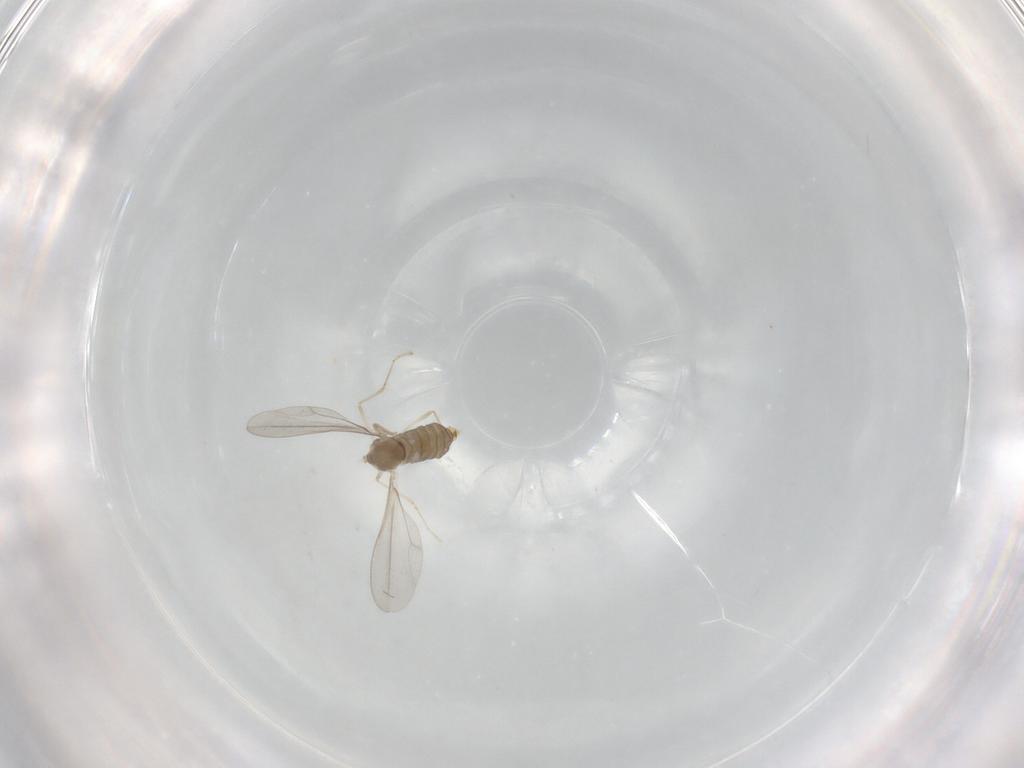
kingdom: Animalia
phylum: Arthropoda
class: Insecta
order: Diptera
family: Cecidomyiidae
